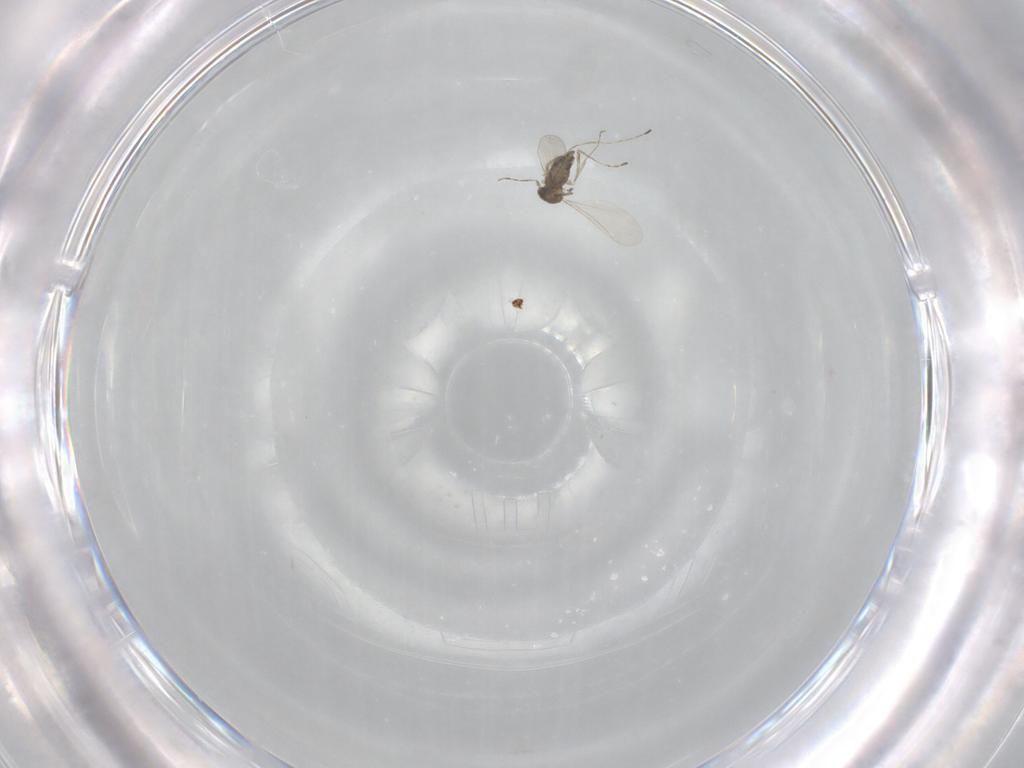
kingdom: Animalia
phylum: Arthropoda
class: Insecta
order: Diptera
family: Cecidomyiidae
